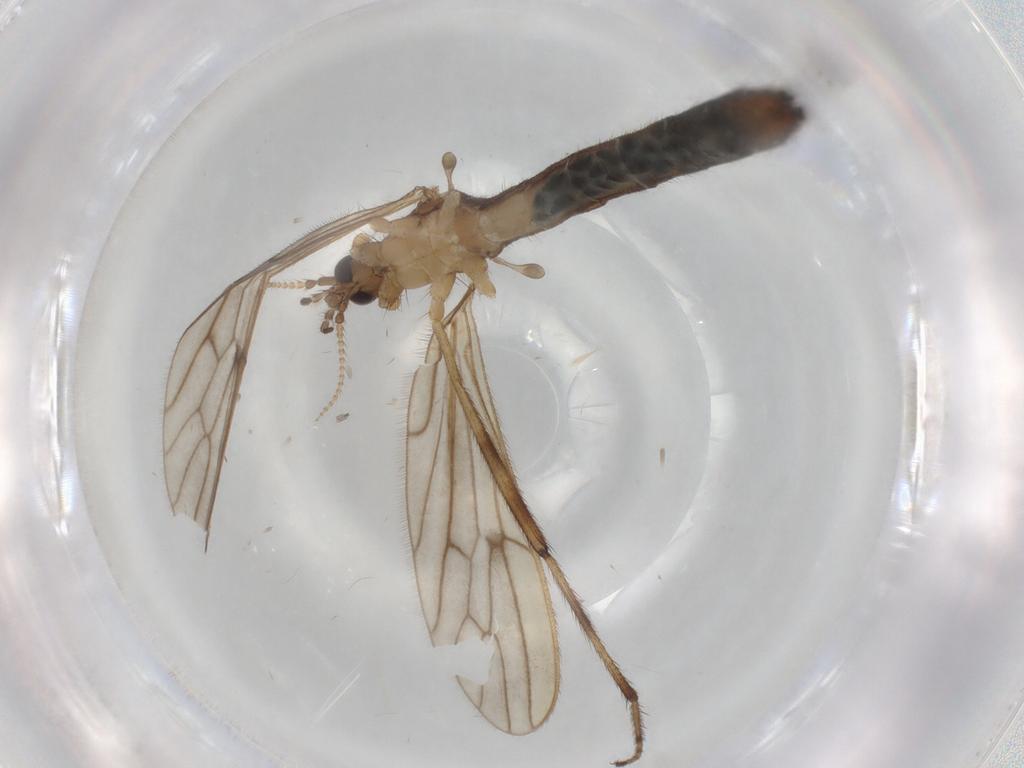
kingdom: Animalia
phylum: Arthropoda
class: Insecta
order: Diptera
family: Limoniidae
